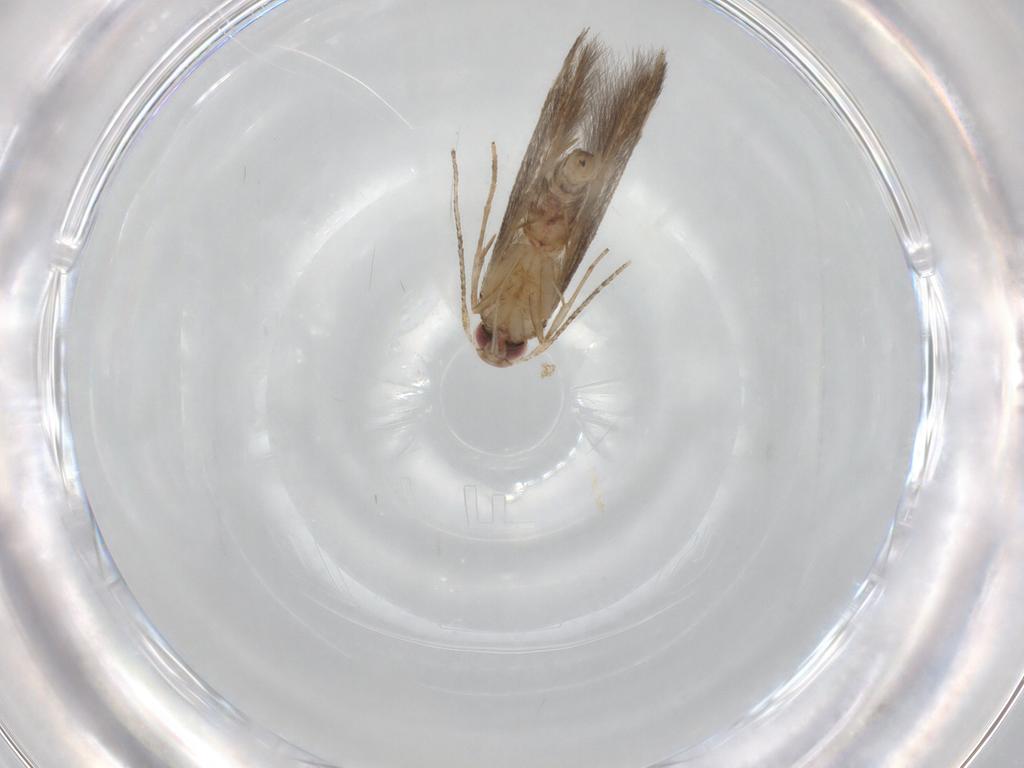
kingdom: Animalia
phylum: Arthropoda
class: Insecta
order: Lepidoptera
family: Cosmopterigidae
